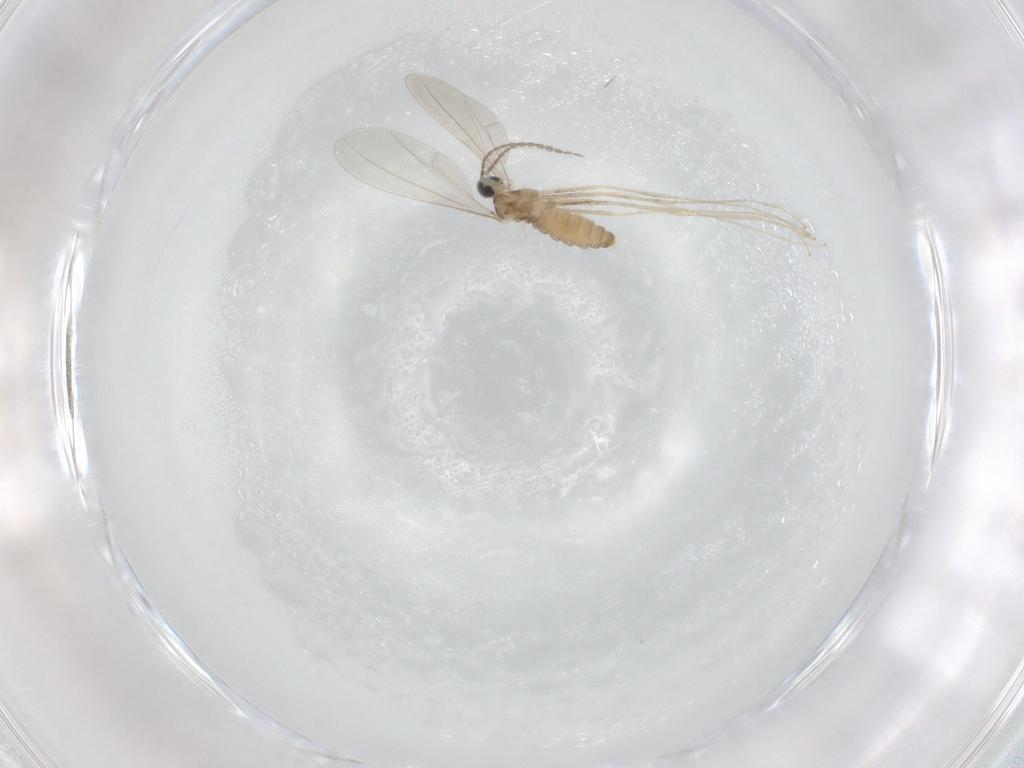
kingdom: Animalia
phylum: Arthropoda
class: Insecta
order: Diptera
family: Cecidomyiidae
